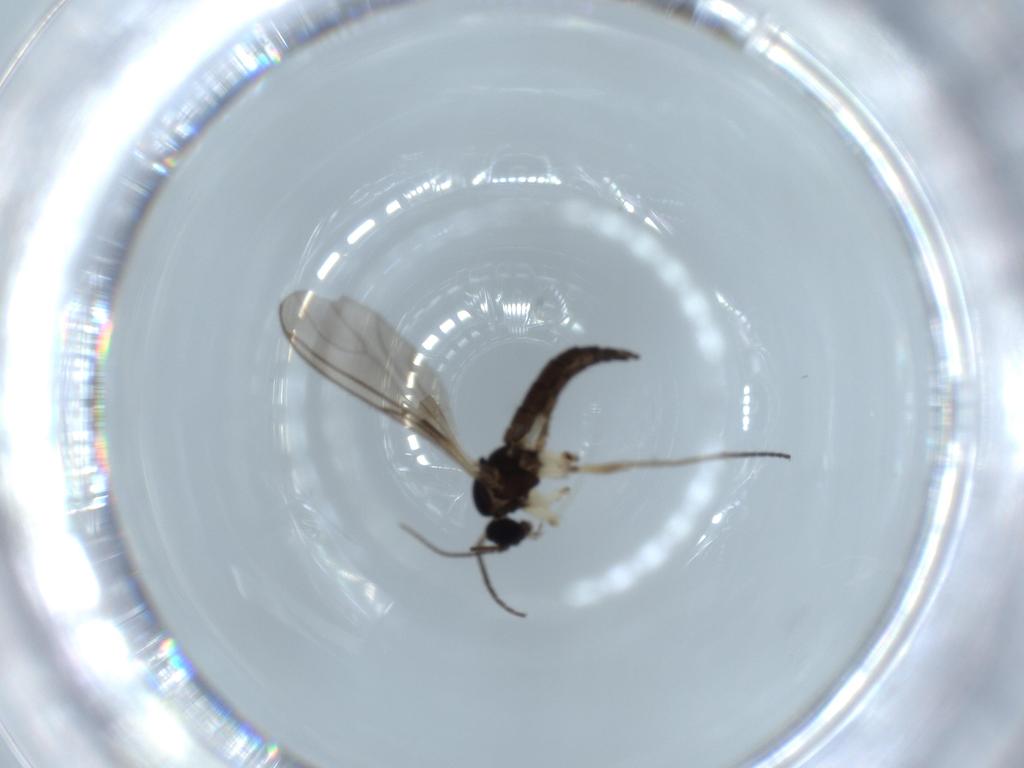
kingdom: Animalia
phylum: Arthropoda
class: Insecta
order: Diptera
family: Sciaridae
